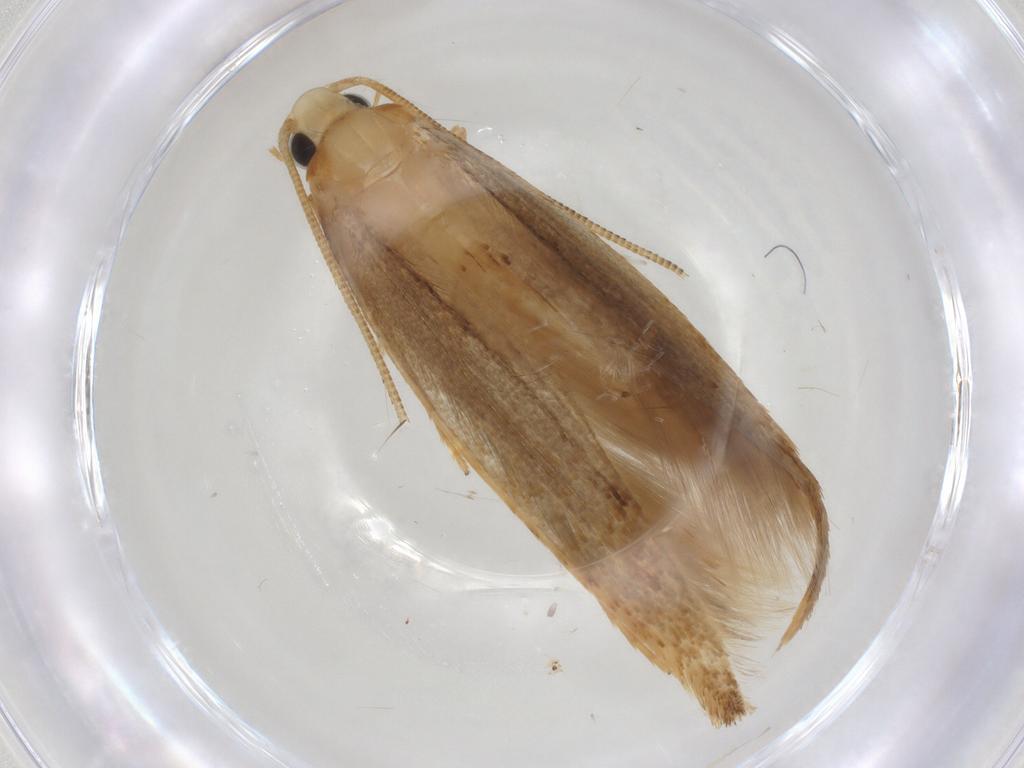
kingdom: Animalia
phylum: Arthropoda
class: Insecta
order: Lepidoptera
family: Tineidae
